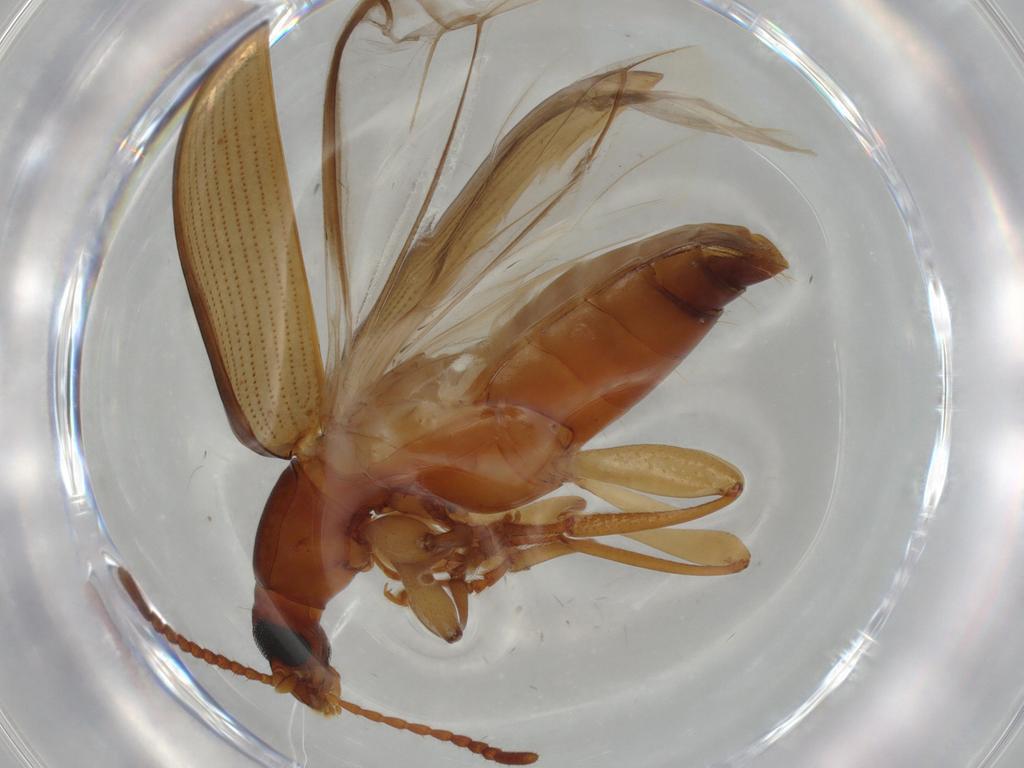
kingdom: Animalia
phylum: Arthropoda
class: Insecta
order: Coleoptera
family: Tenebrionidae
